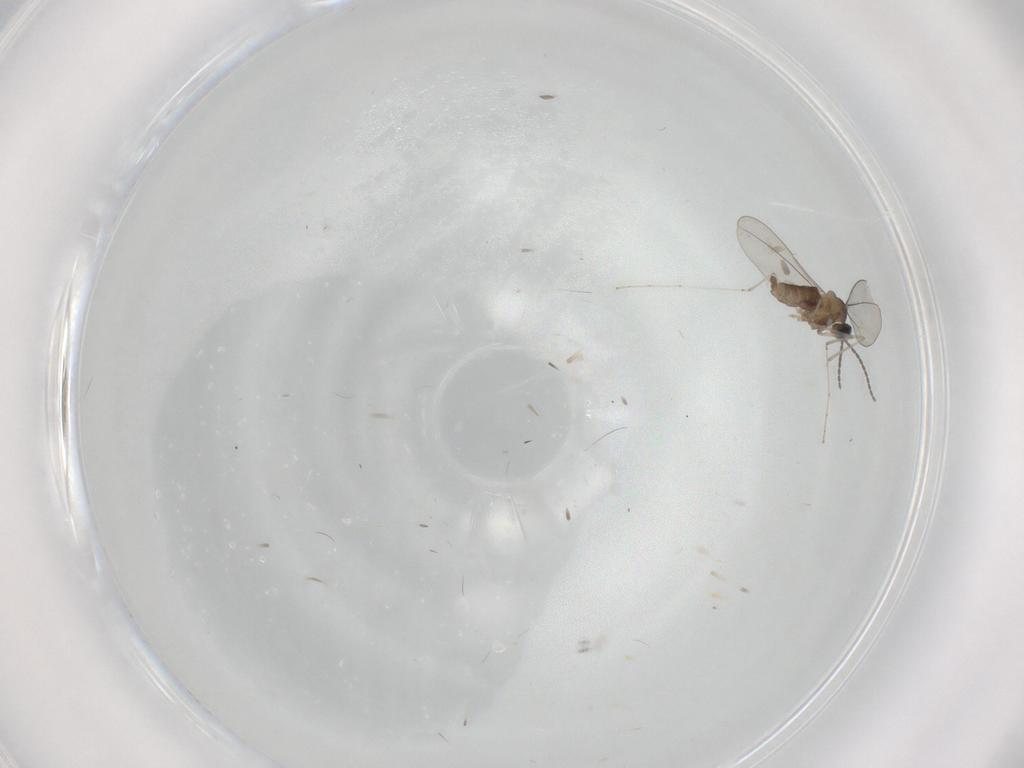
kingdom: Animalia
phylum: Arthropoda
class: Insecta
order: Diptera
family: Cecidomyiidae
